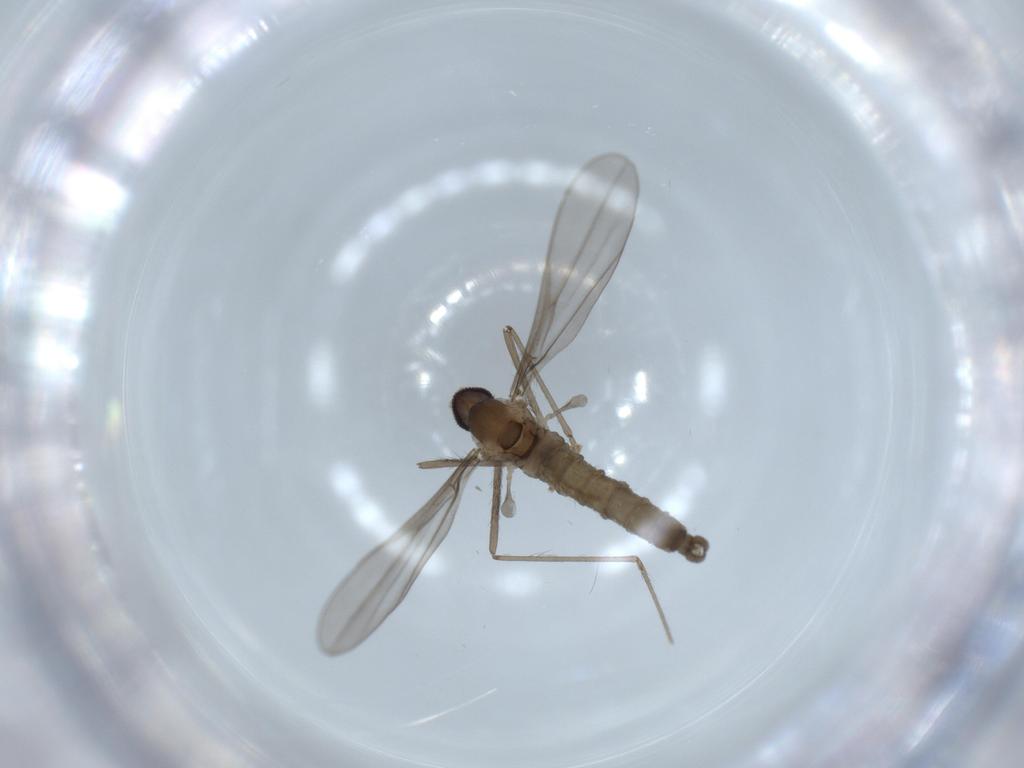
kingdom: Animalia
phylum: Arthropoda
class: Insecta
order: Diptera
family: Cecidomyiidae
